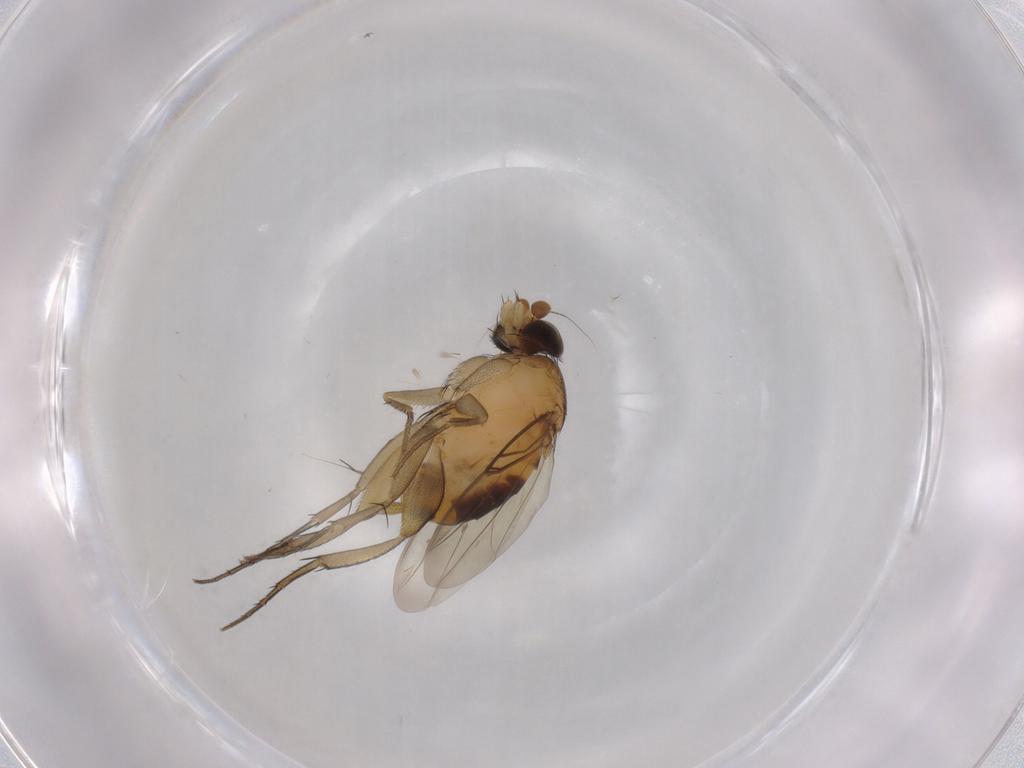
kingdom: Animalia
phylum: Arthropoda
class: Insecta
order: Diptera
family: Phoridae
